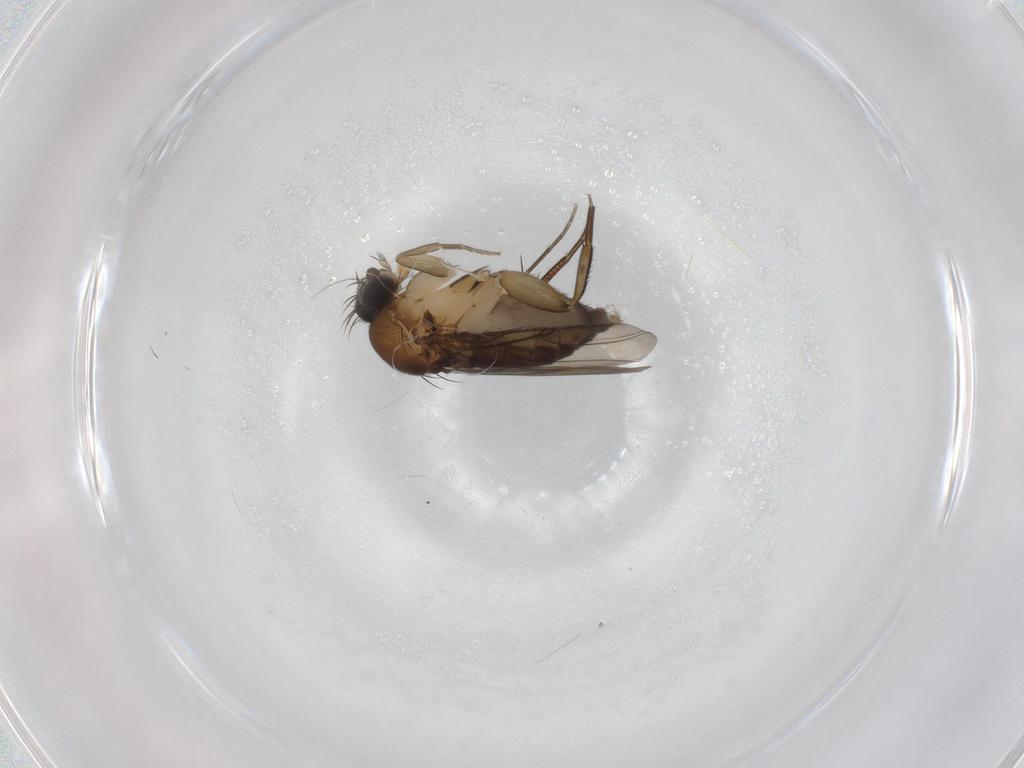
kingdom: Animalia
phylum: Arthropoda
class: Insecta
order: Diptera
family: Phoridae
